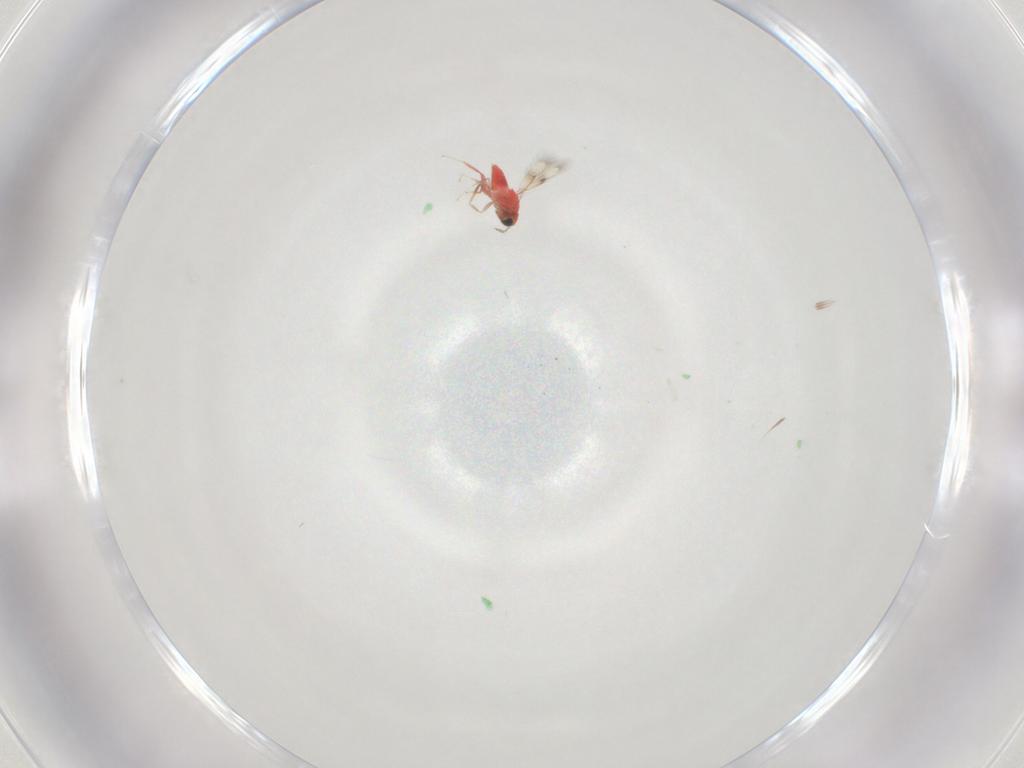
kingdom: Animalia
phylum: Arthropoda
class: Insecta
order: Hymenoptera
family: Trichogrammatidae
